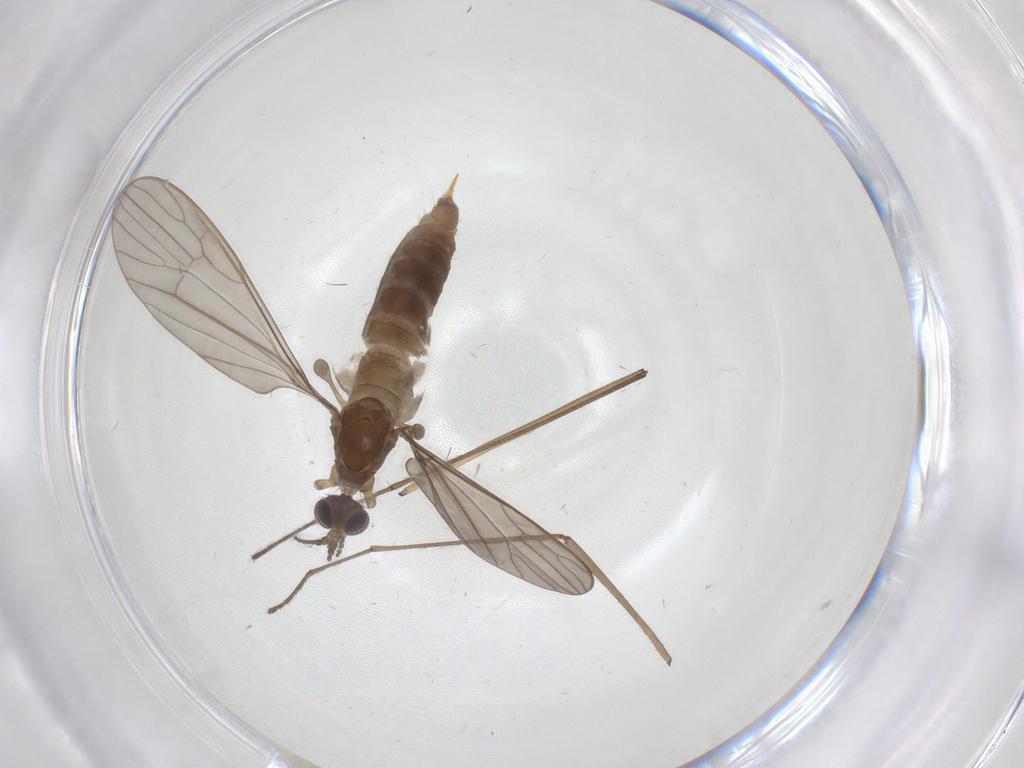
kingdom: Animalia
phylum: Arthropoda
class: Insecta
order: Diptera
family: Limoniidae
